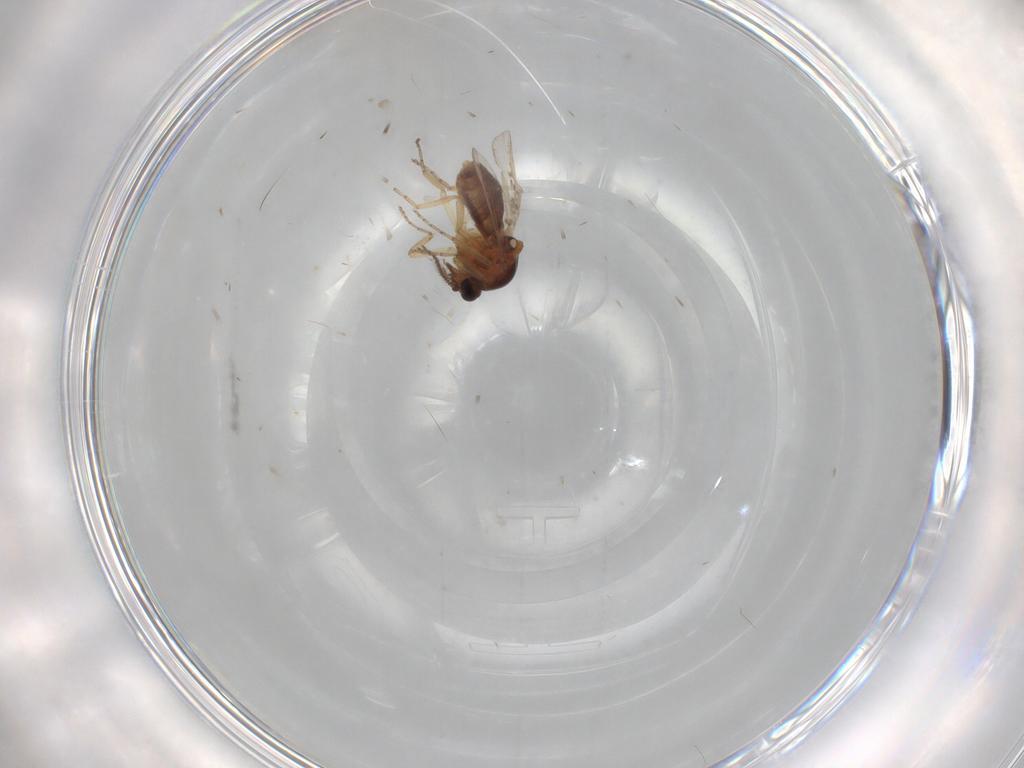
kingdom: Animalia
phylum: Arthropoda
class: Insecta
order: Diptera
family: Ceratopogonidae
